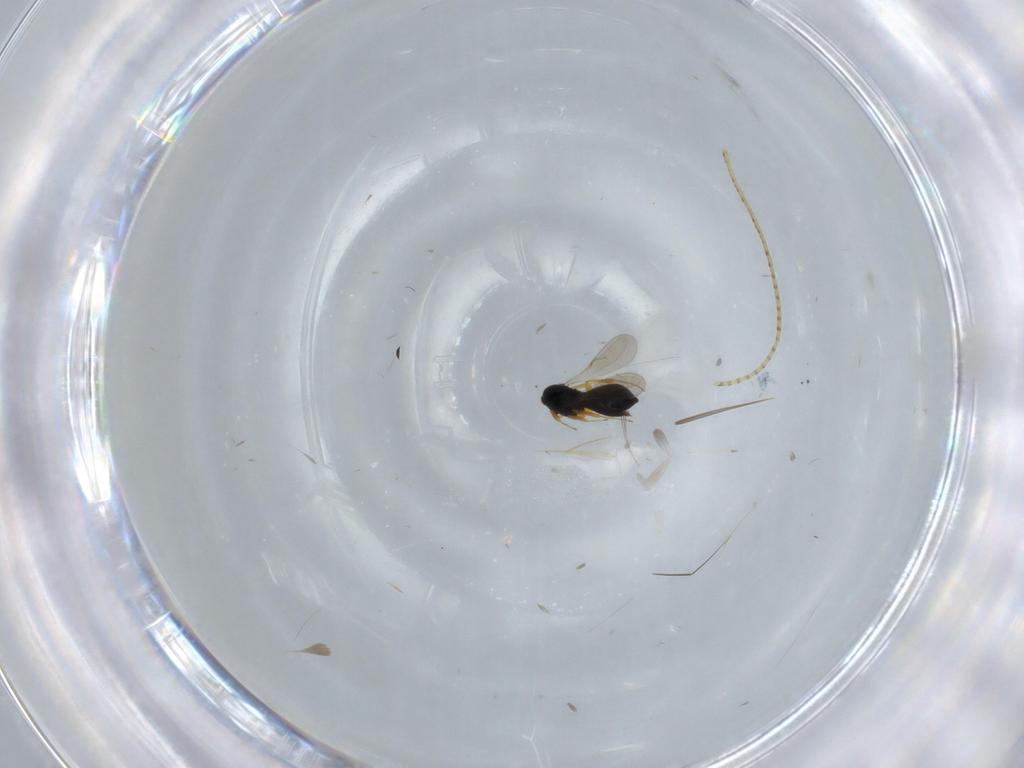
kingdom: Animalia
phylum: Arthropoda
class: Insecta
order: Hymenoptera
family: Scelionidae
